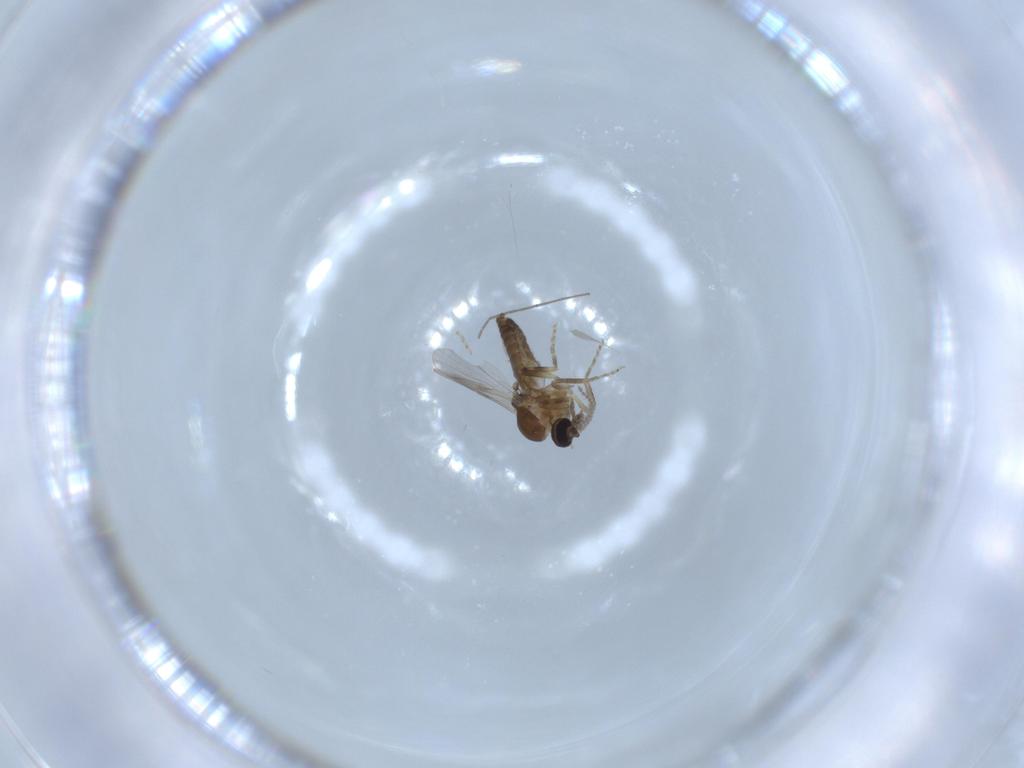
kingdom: Animalia
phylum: Arthropoda
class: Insecta
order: Diptera
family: Ceratopogonidae
